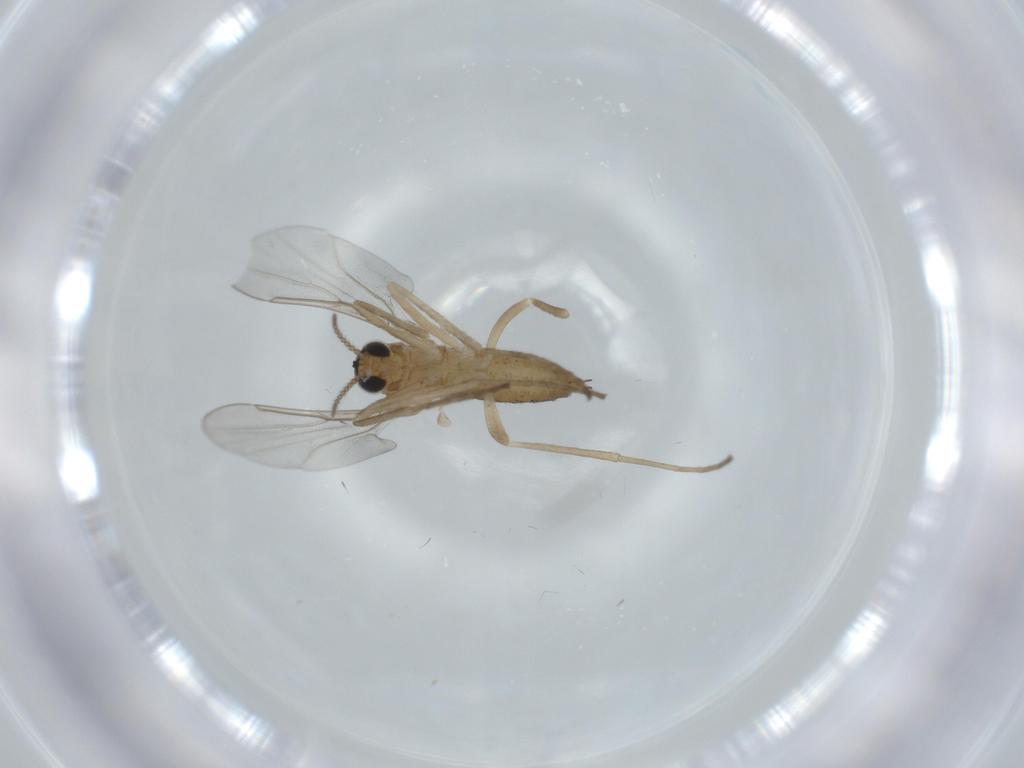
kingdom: Animalia
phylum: Arthropoda
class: Insecta
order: Diptera
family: Cecidomyiidae
